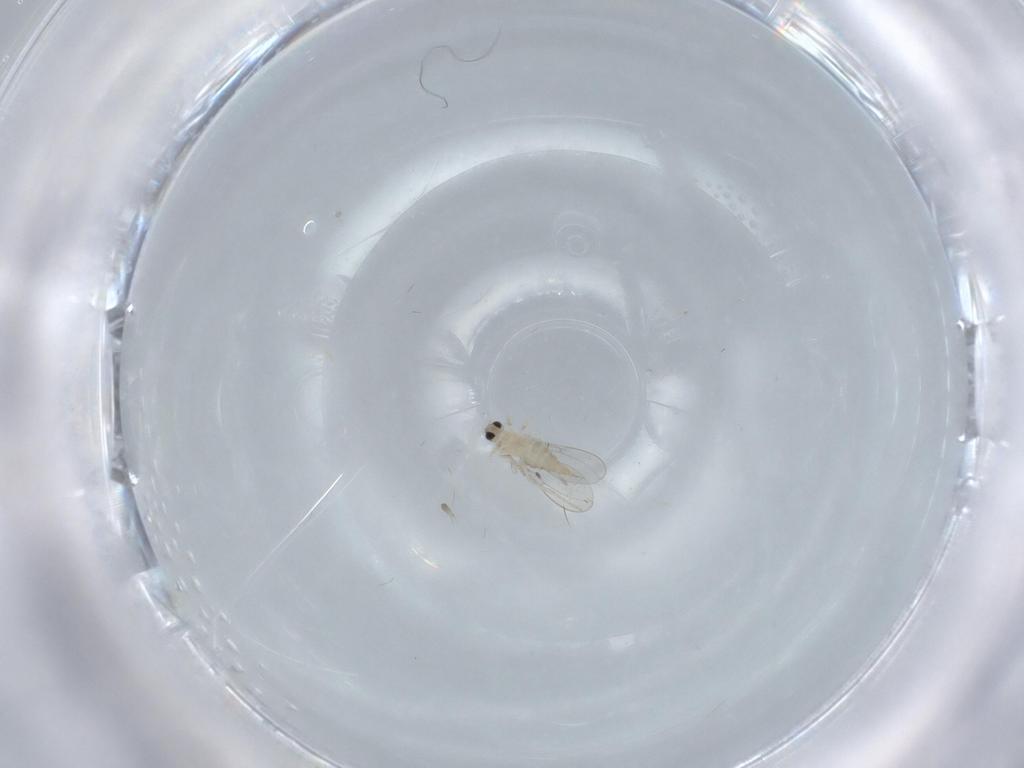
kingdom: Animalia
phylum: Arthropoda
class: Insecta
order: Diptera
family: Cecidomyiidae
